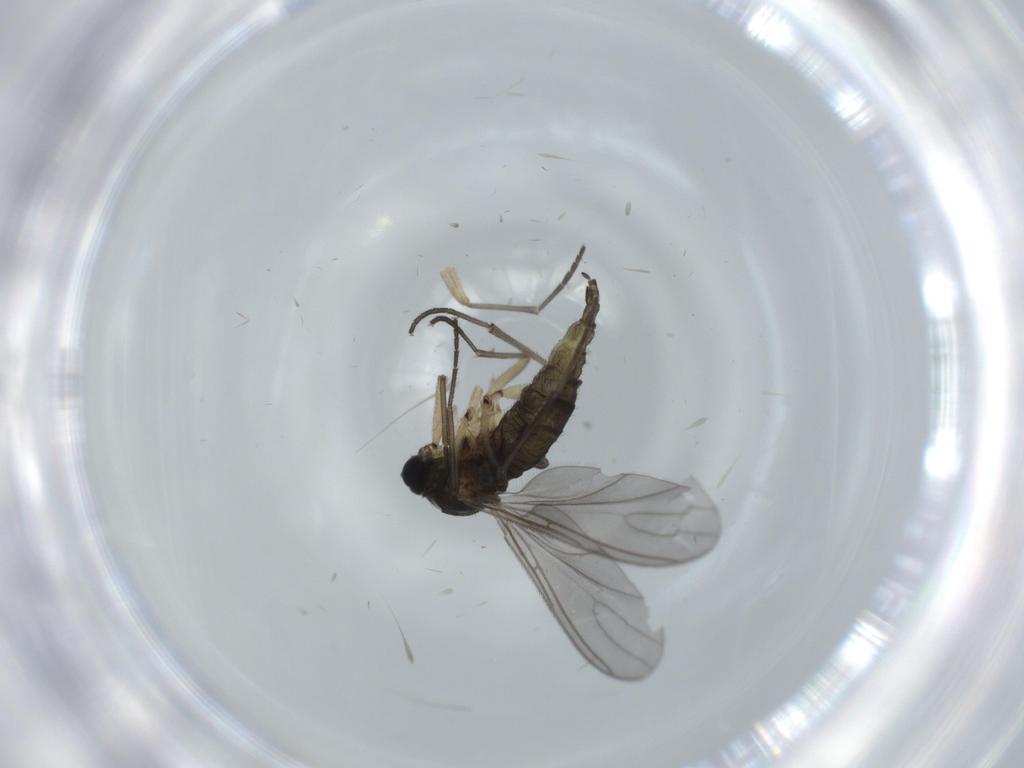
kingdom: Animalia
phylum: Arthropoda
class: Insecta
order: Diptera
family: Sciaridae
